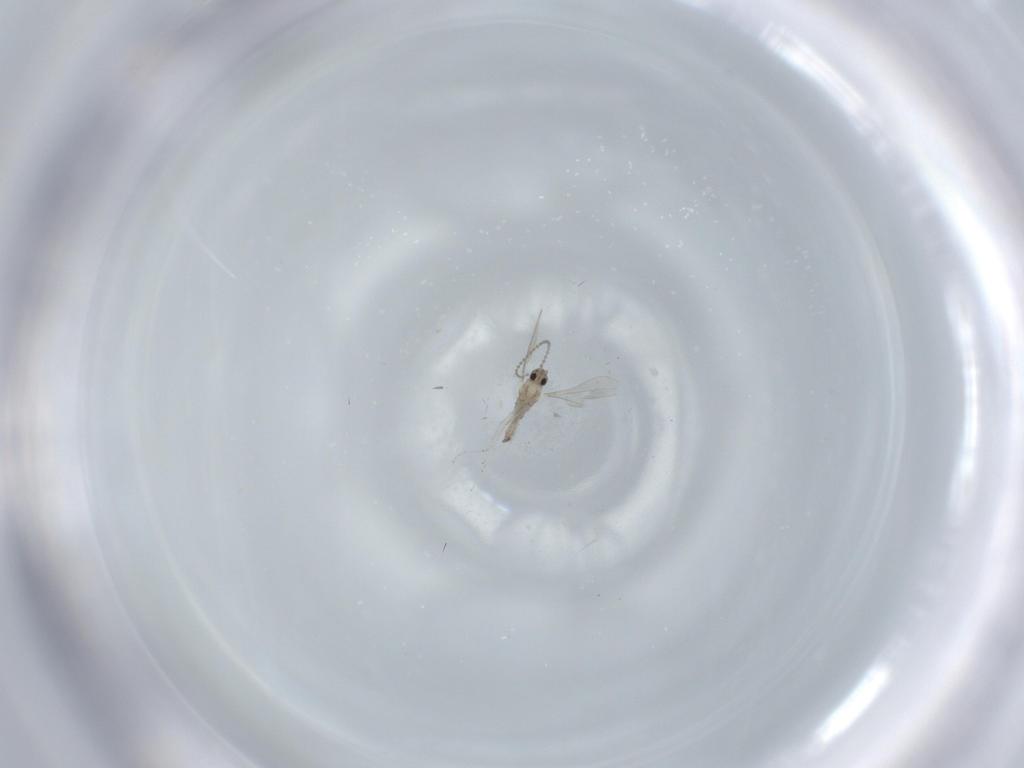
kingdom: Animalia
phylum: Arthropoda
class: Insecta
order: Diptera
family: Cecidomyiidae
